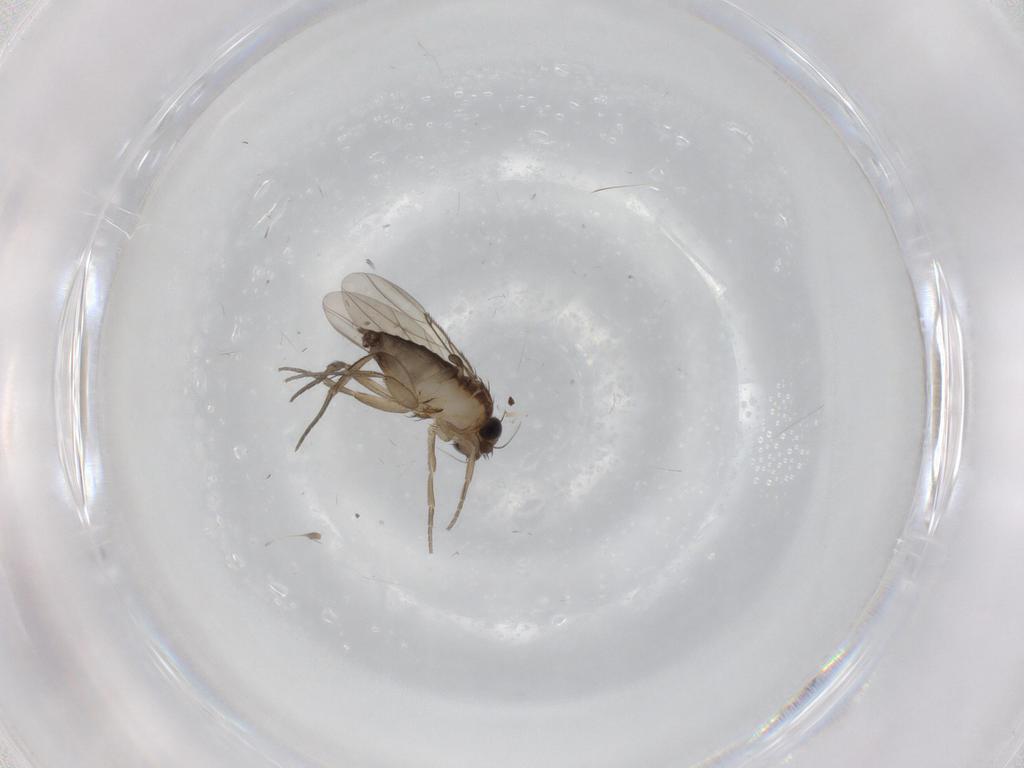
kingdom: Animalia
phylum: Arthropoda
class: Insecta
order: Diptera
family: Phoridae
